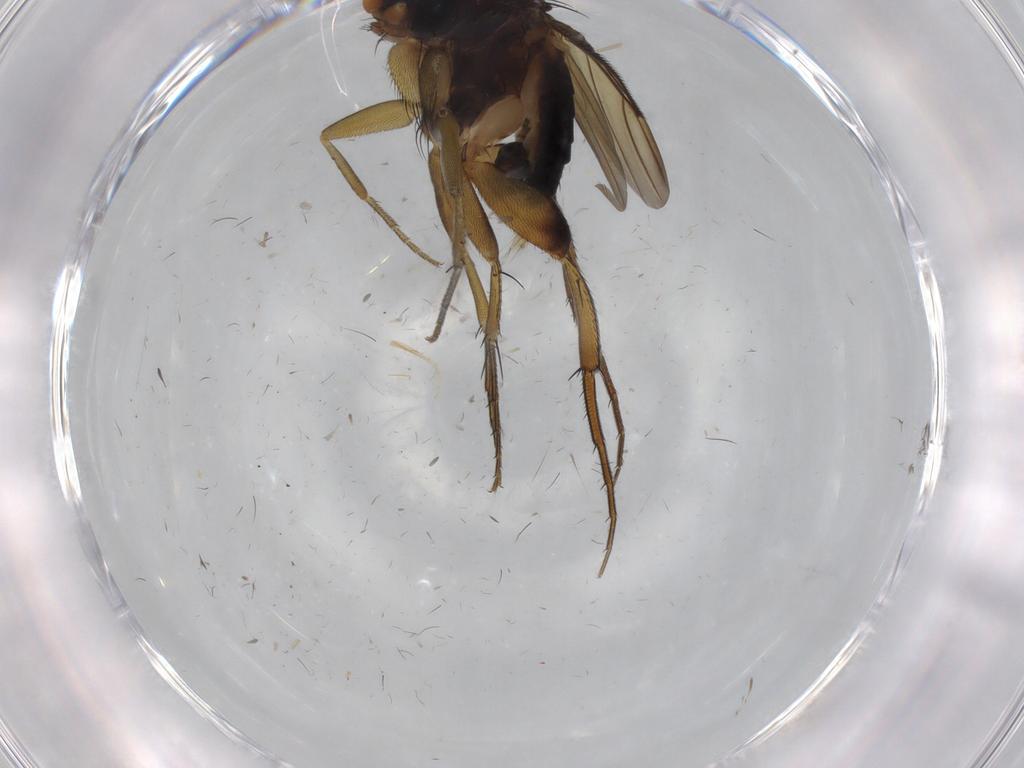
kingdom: Animalia
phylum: Arthropoda
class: Insecta
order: Diptera
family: Phoridae
